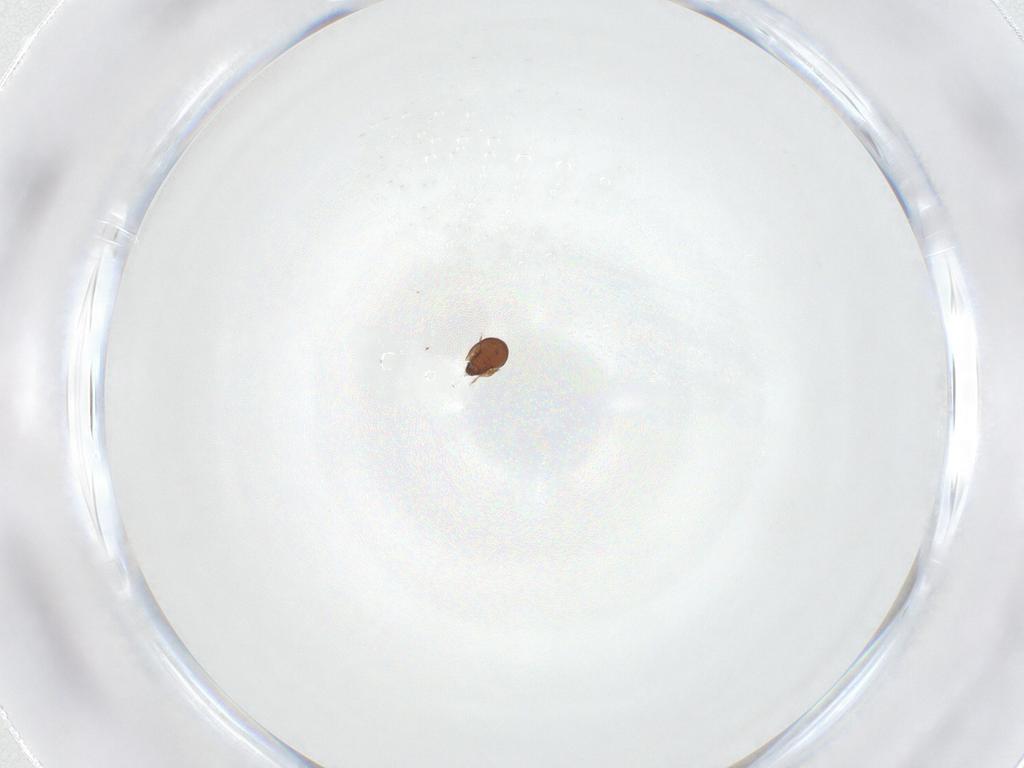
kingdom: Animalia
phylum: Arthropoda
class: Arachnida
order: Sarcoptiformes
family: Tegoribatidae
